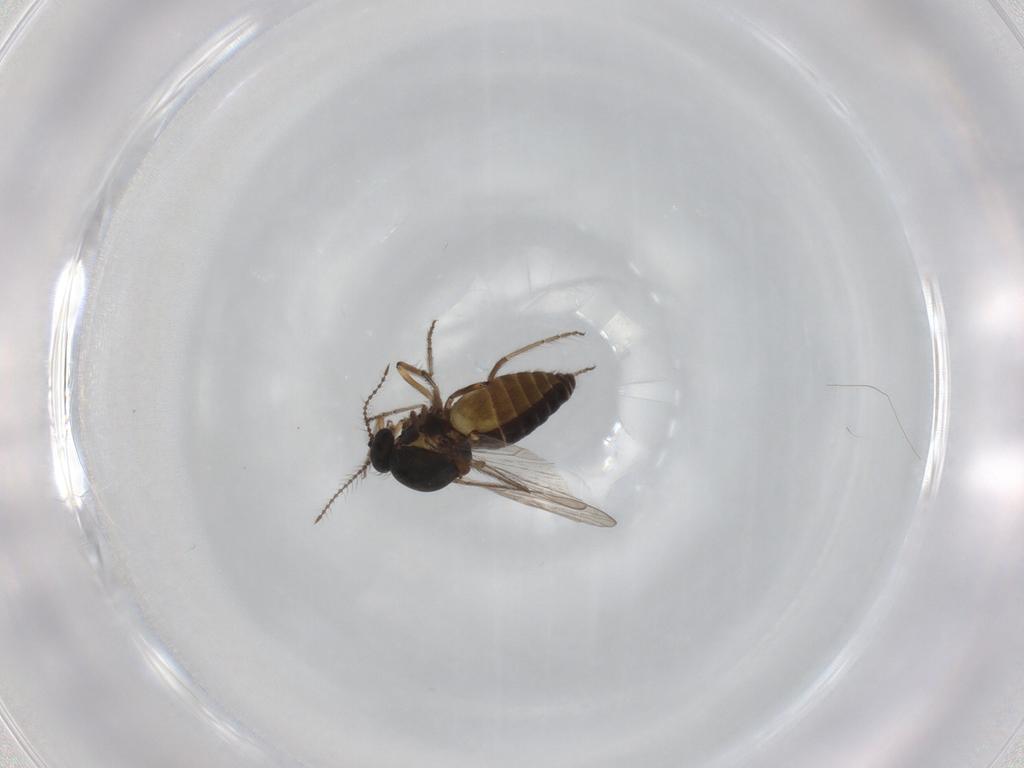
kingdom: Animalia
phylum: Arthropoda
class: Insecta
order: Diptera
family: Ceratopogonidae
